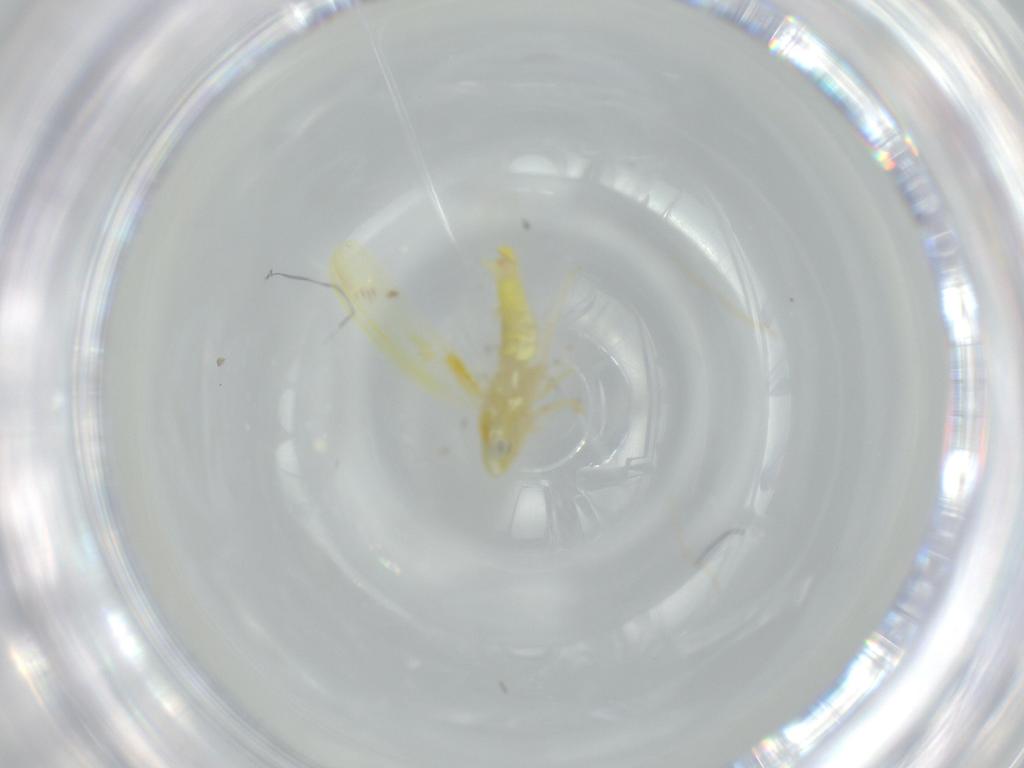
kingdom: Animalia
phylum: Arthropoda
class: Insecta
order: Hemiptera
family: Cicadellidae
